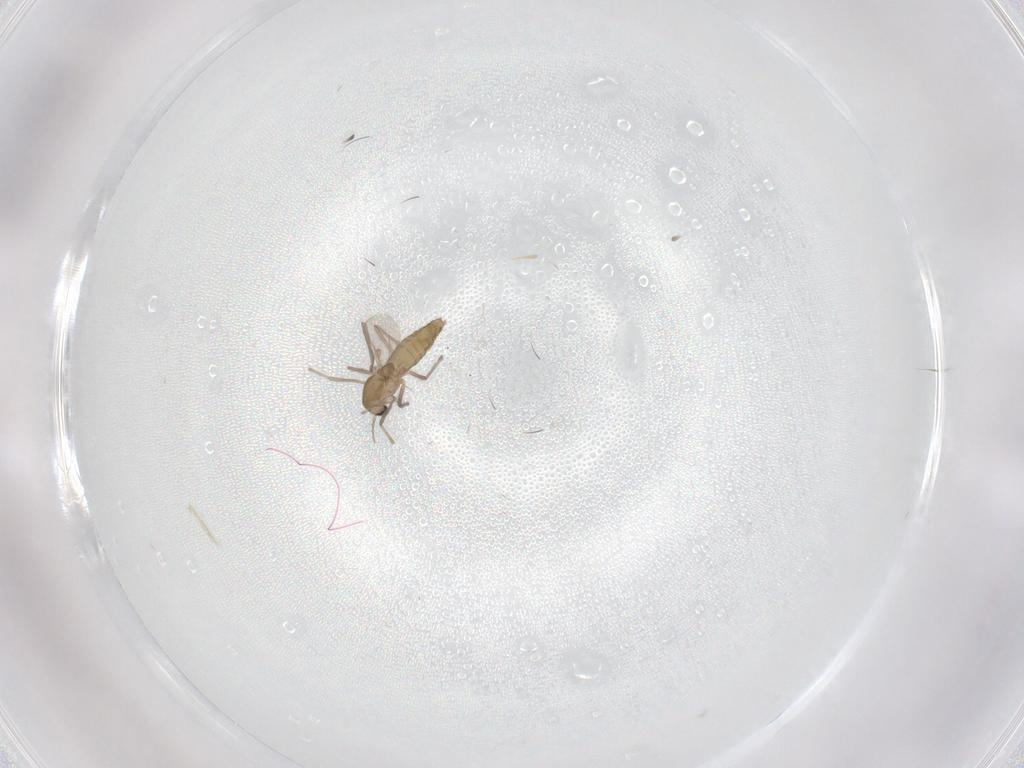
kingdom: Animalia
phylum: Arthropoda
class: Insecta
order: Diptera
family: Chironomidae
